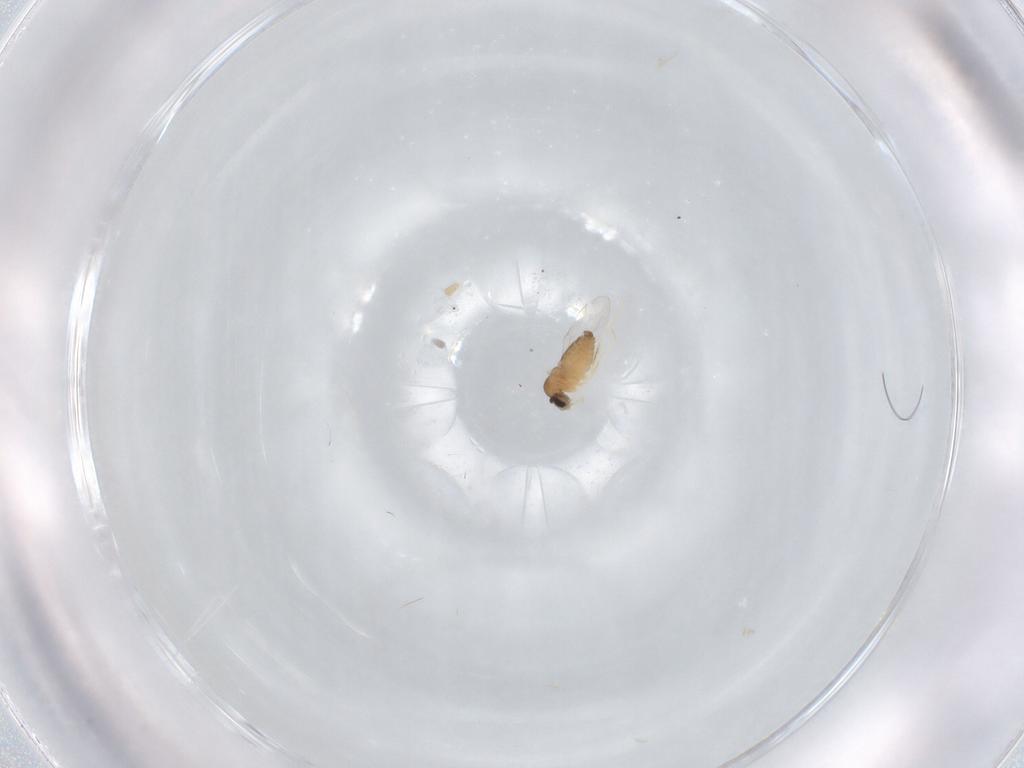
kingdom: Animalia
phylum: Arthropoda
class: Insecta
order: Diptera
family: Cecidomyiidae
